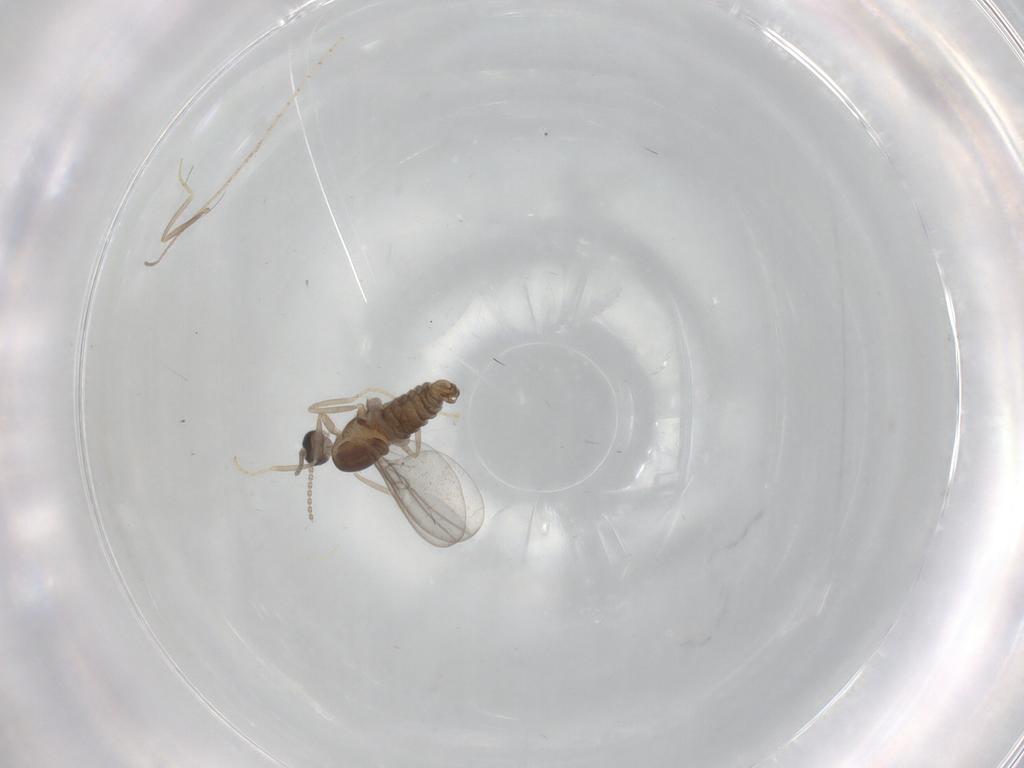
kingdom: Animalia
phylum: Arthropoda
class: Insecta
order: Diptera
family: Cecidomyiidae
